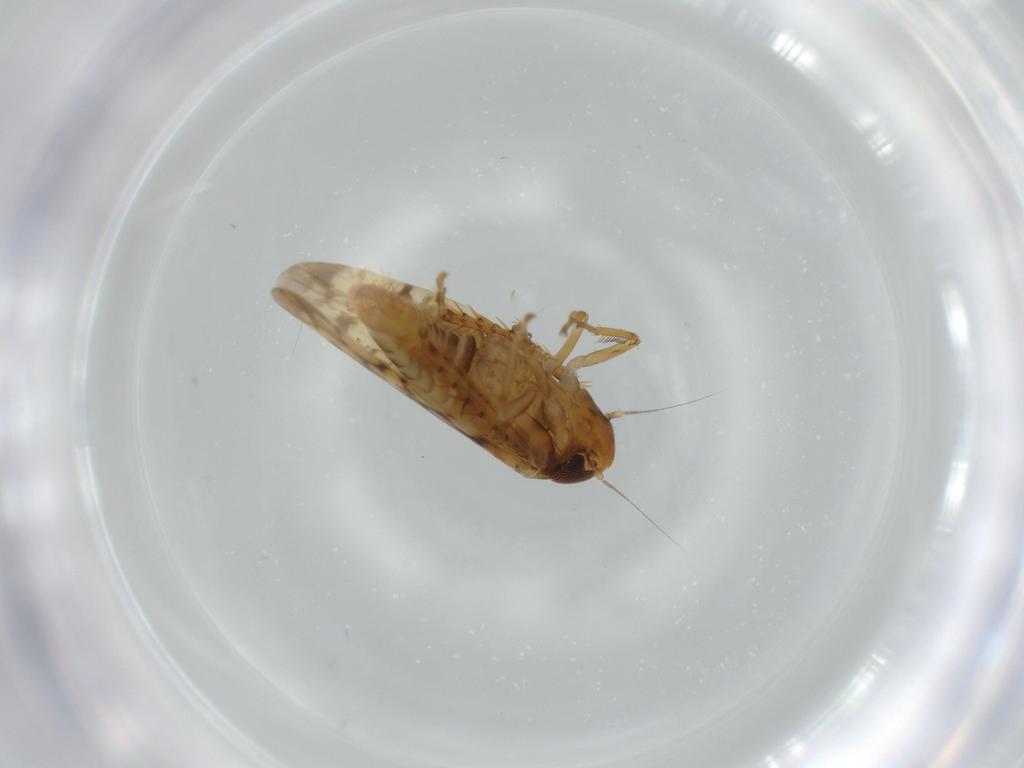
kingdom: Animalia
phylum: Arthropoda
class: Insecta
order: Hemiptera
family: Cicadellidae
